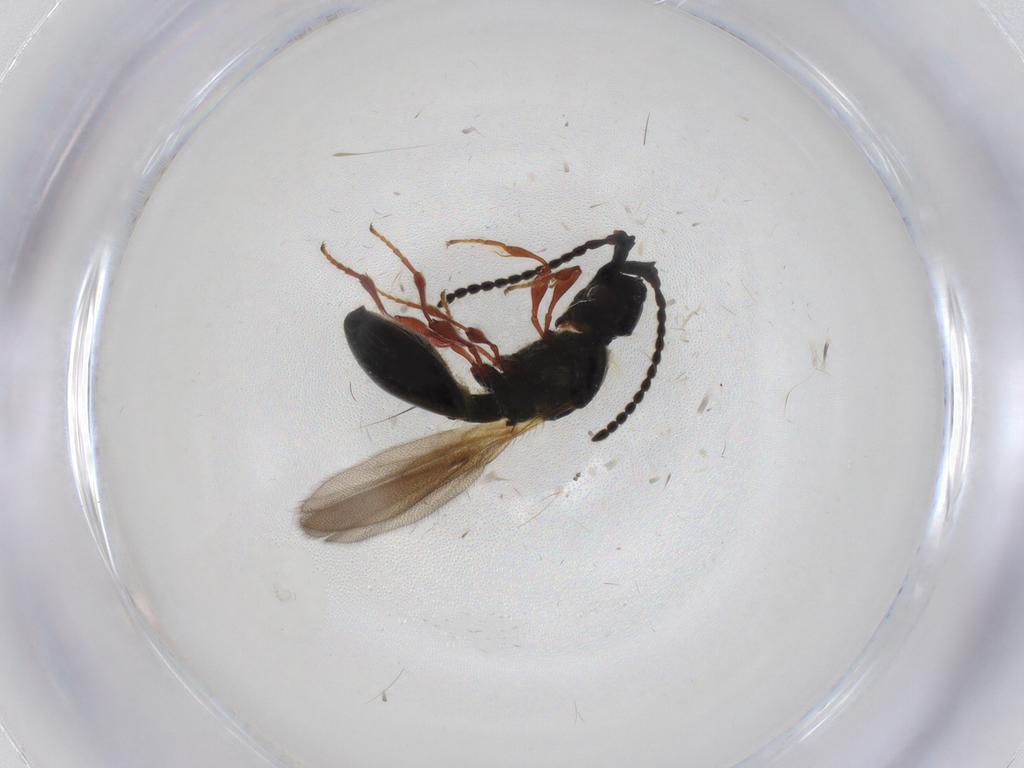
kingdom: Animalia
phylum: Arthropoda
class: Insecta
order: Hymenoptera
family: Diapriidae
